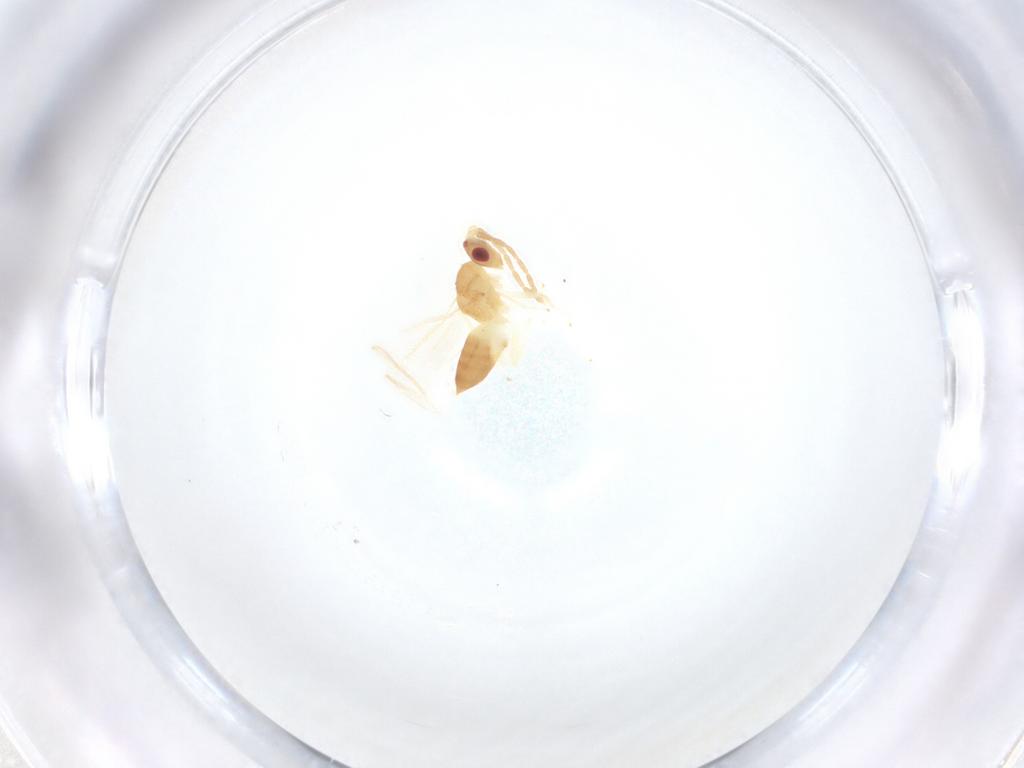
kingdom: Animalia
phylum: Arthropoda
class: Insecta
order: Hymenoptera
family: Eulophidae
